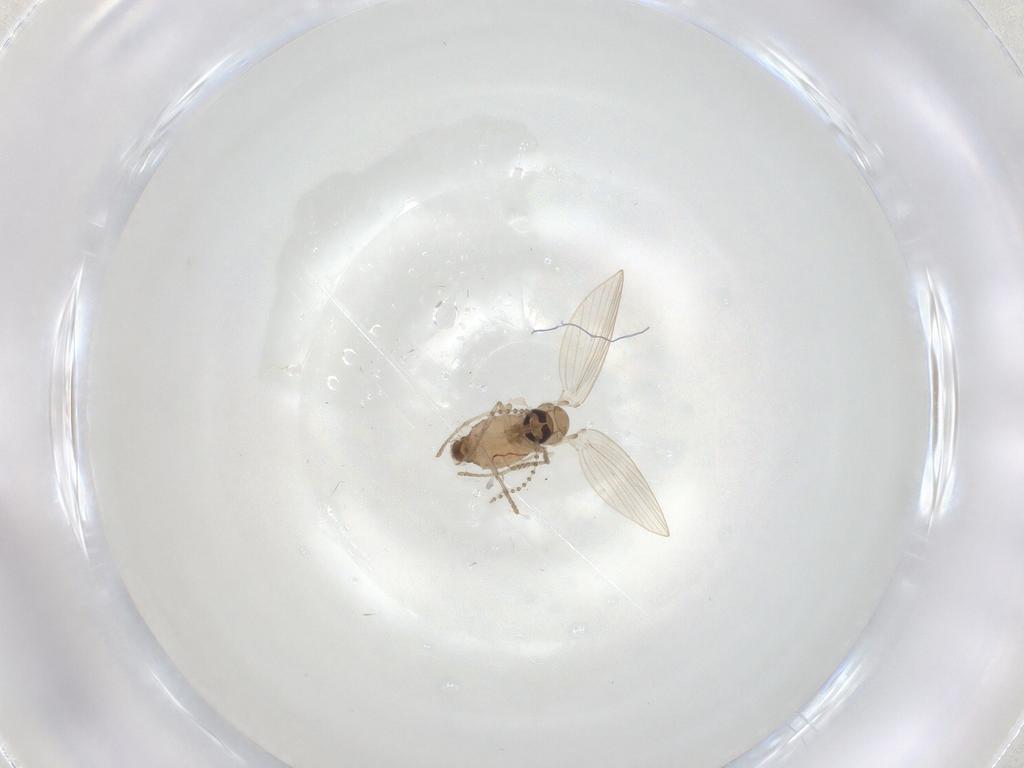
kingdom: Animalia
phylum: Arthropoda
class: Insecta
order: Diptera
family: Psychodidae
